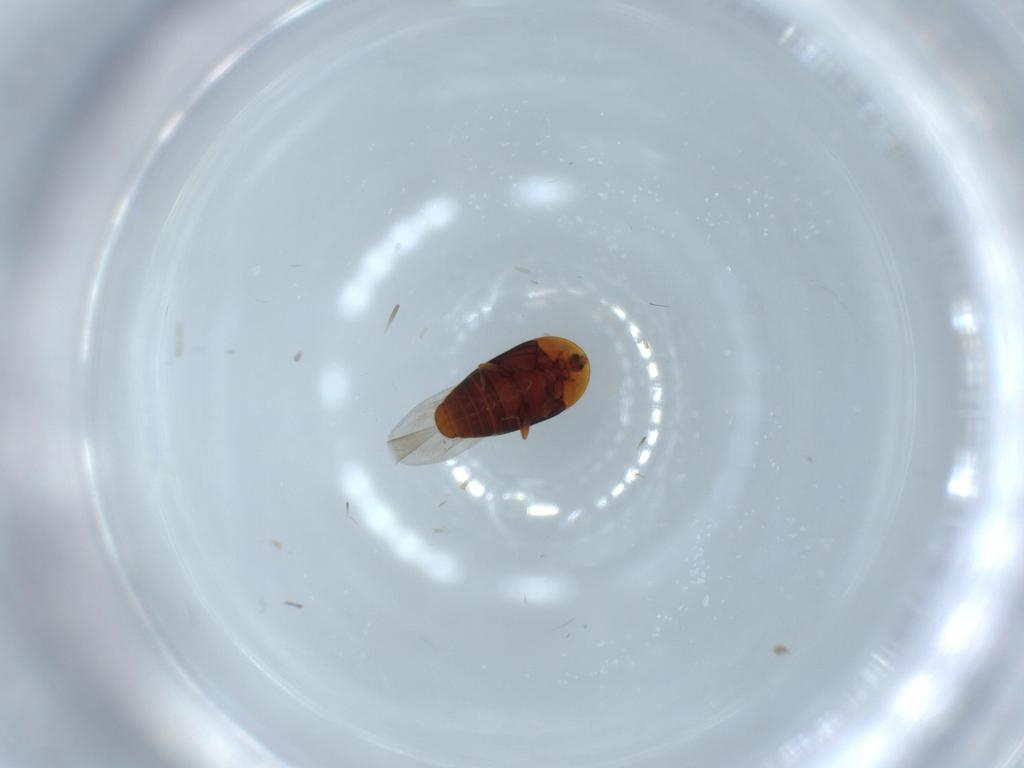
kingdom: Animalia
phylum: Arthropoda
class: Insecta
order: Coleoptera
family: Corylophidae
